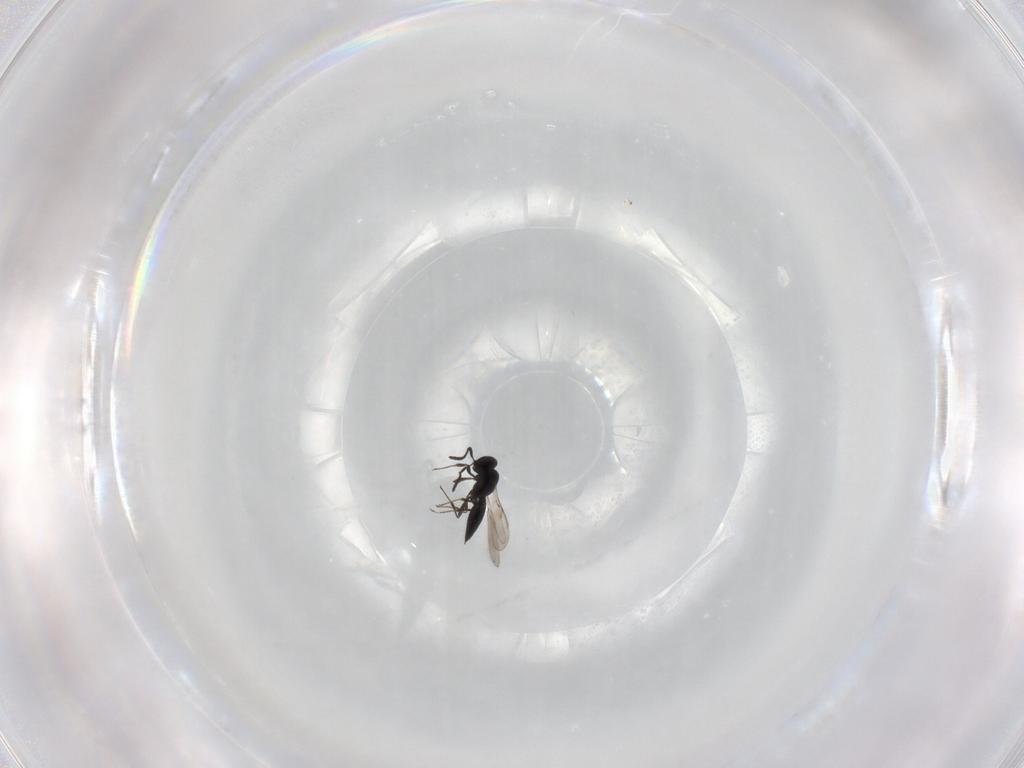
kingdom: Animalia
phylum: Arthropoda
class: Insecta
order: Hymenoptera
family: Scelionidae
